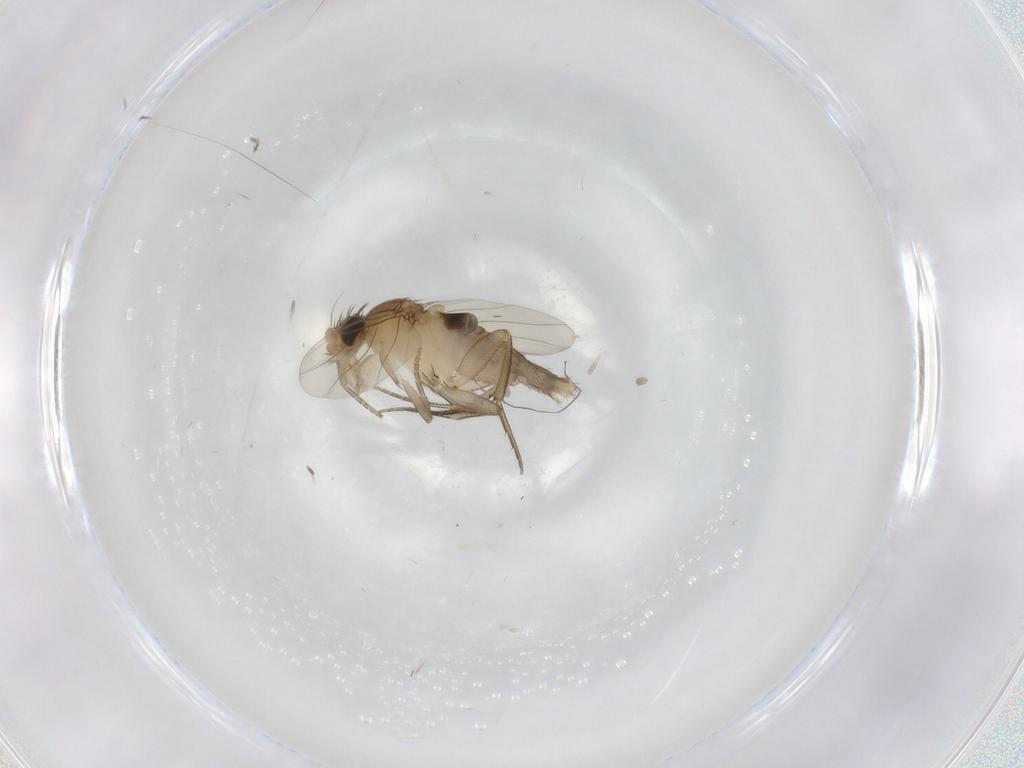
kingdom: Animalia
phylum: Arthropoda
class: Insecta
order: Diptera
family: Phoridae
